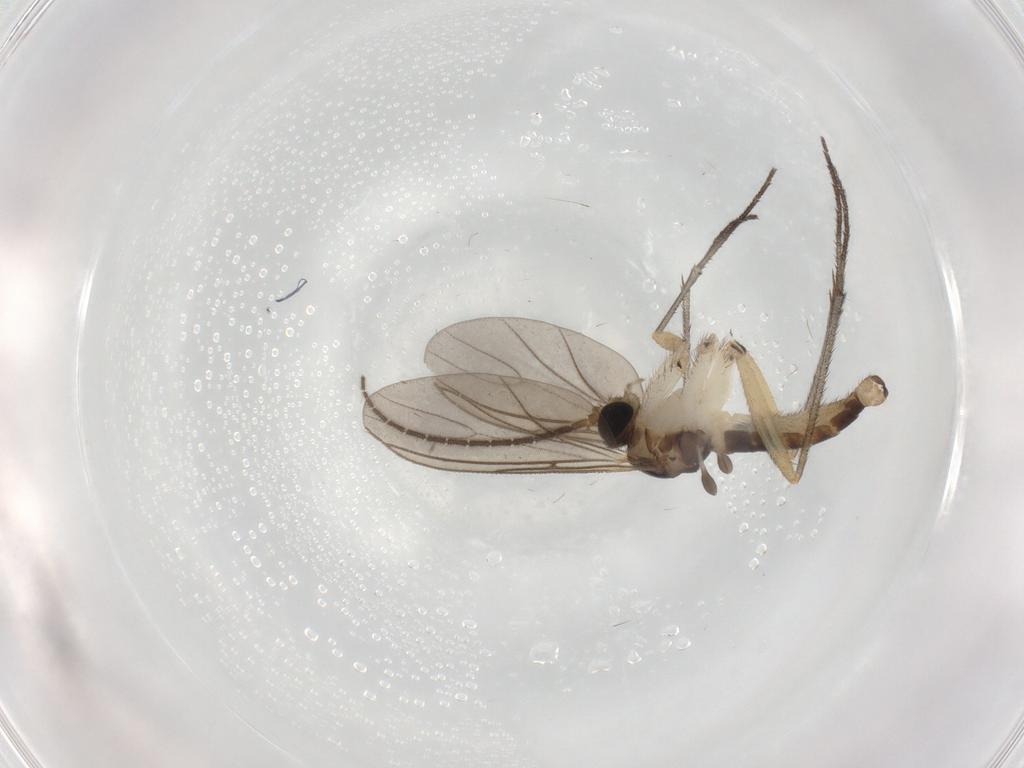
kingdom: Animalia
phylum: Arthropoda
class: Insecta
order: Diptera
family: Sciaridae
